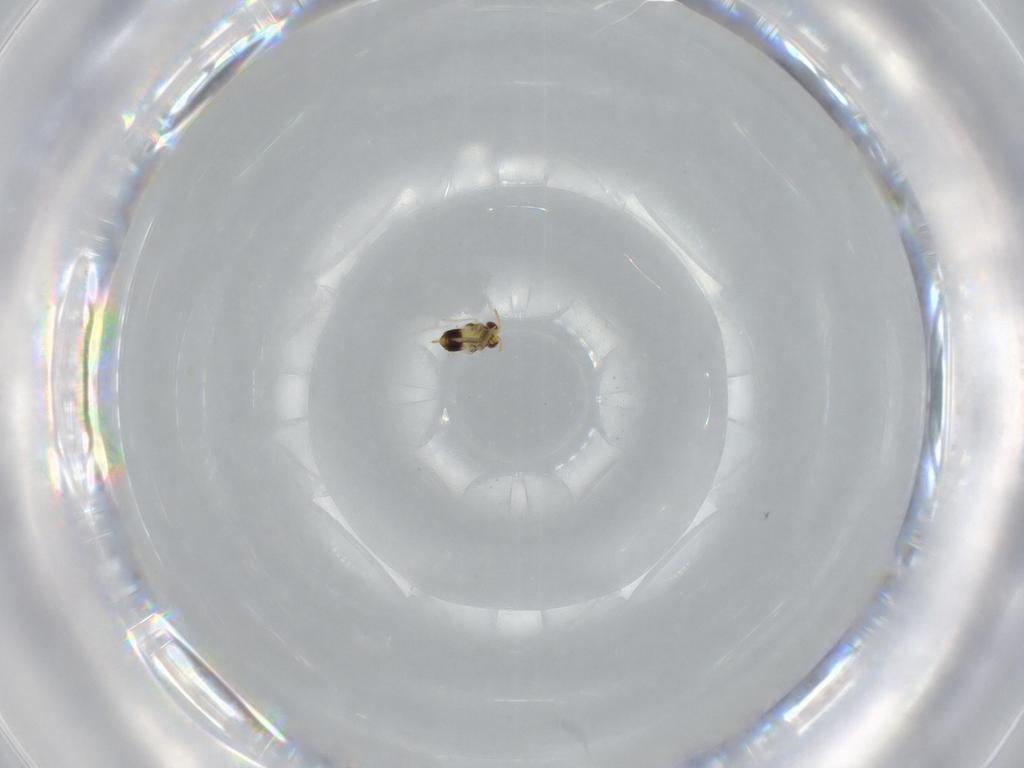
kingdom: Animalia
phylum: Arthropoda
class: Insecta
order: Hymenoptera
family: Aphelinidae
